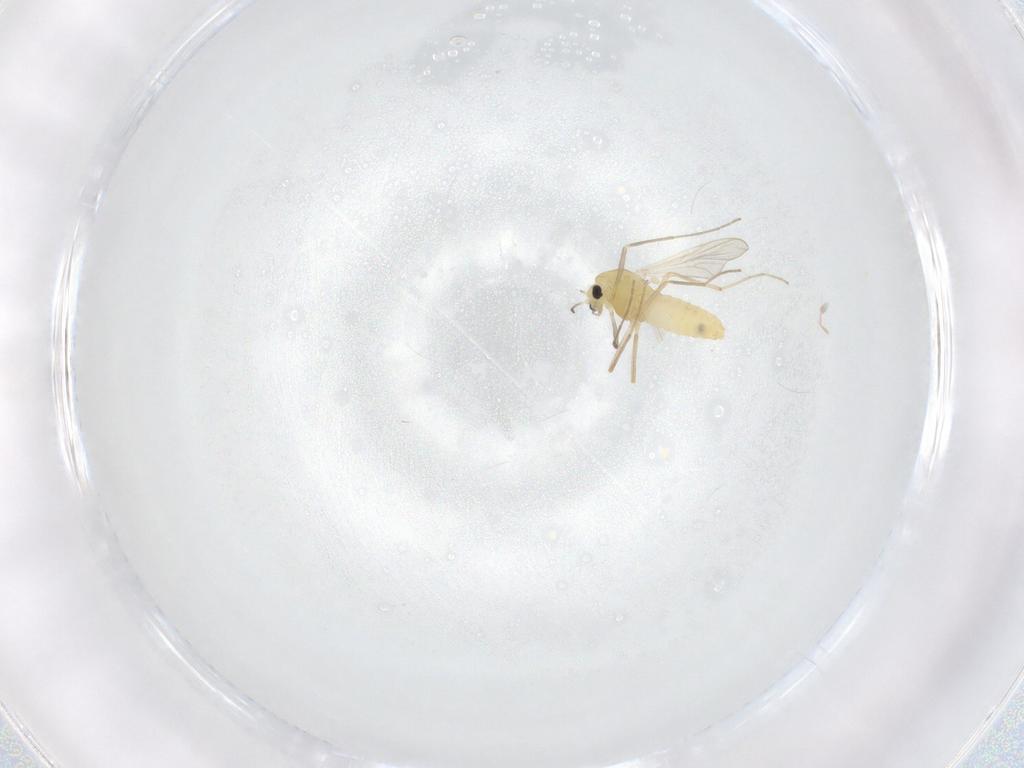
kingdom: Animalia
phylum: Arthropoda
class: Insecta
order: Diptera
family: Chironomidae
